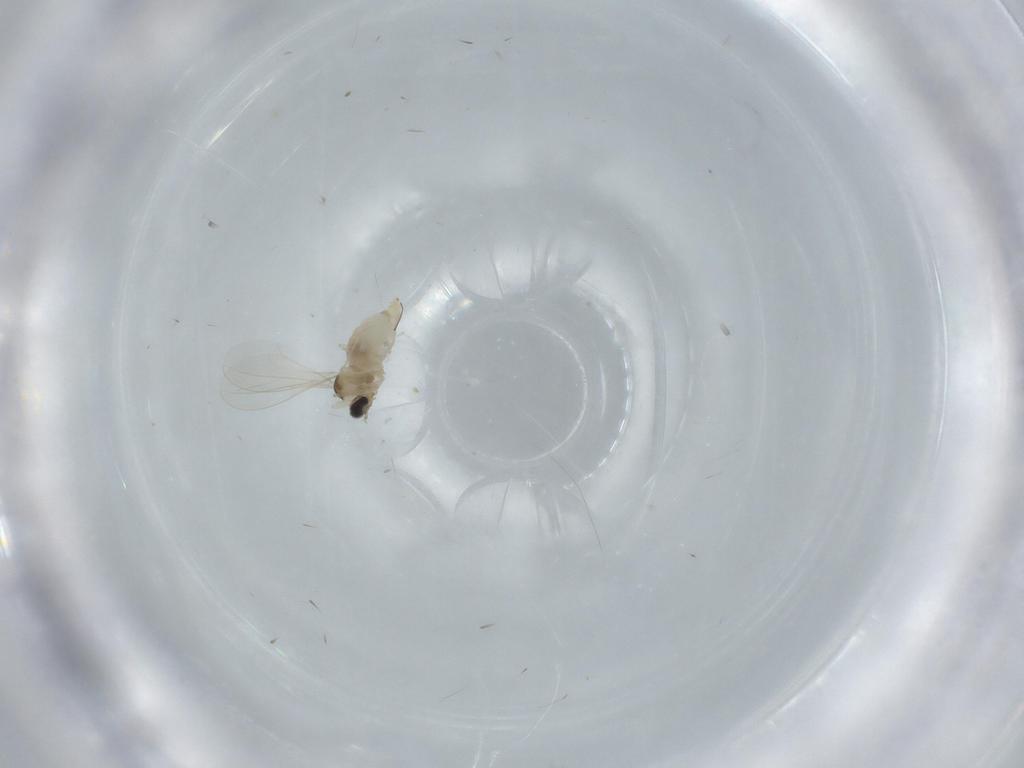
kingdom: Animalia
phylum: Arthropoda
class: Insecta
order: Diptera
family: Cecidomyiidae
